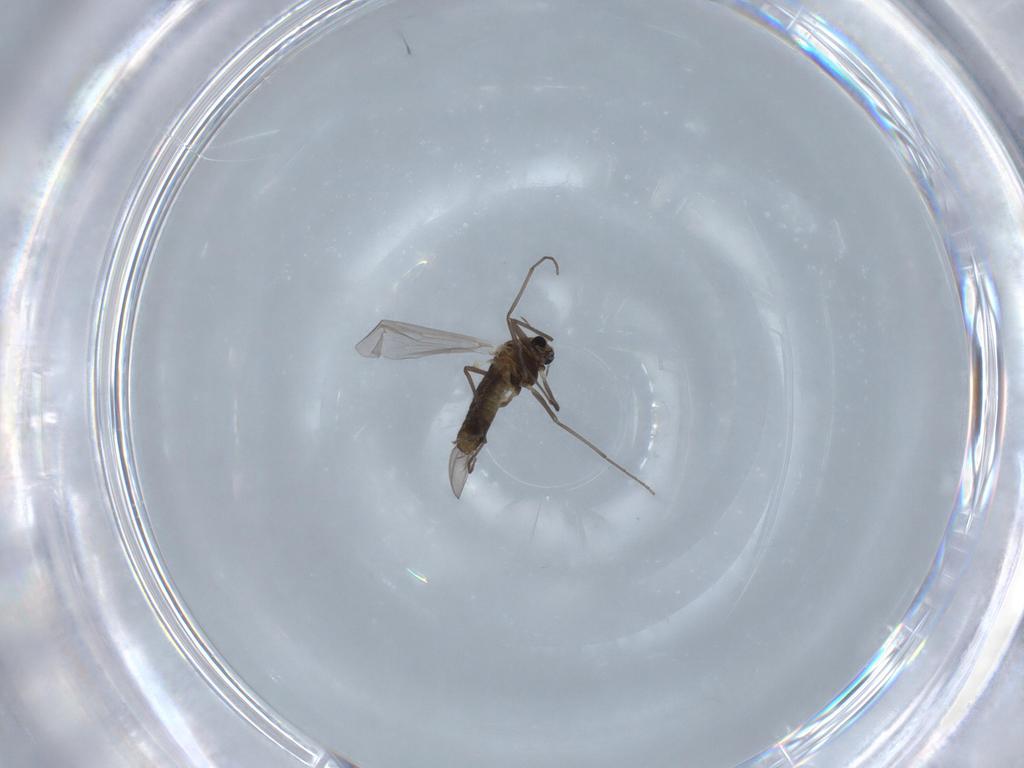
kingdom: Animalia
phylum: Arthropoda
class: Insecta
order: Diptera
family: Chironomidae
